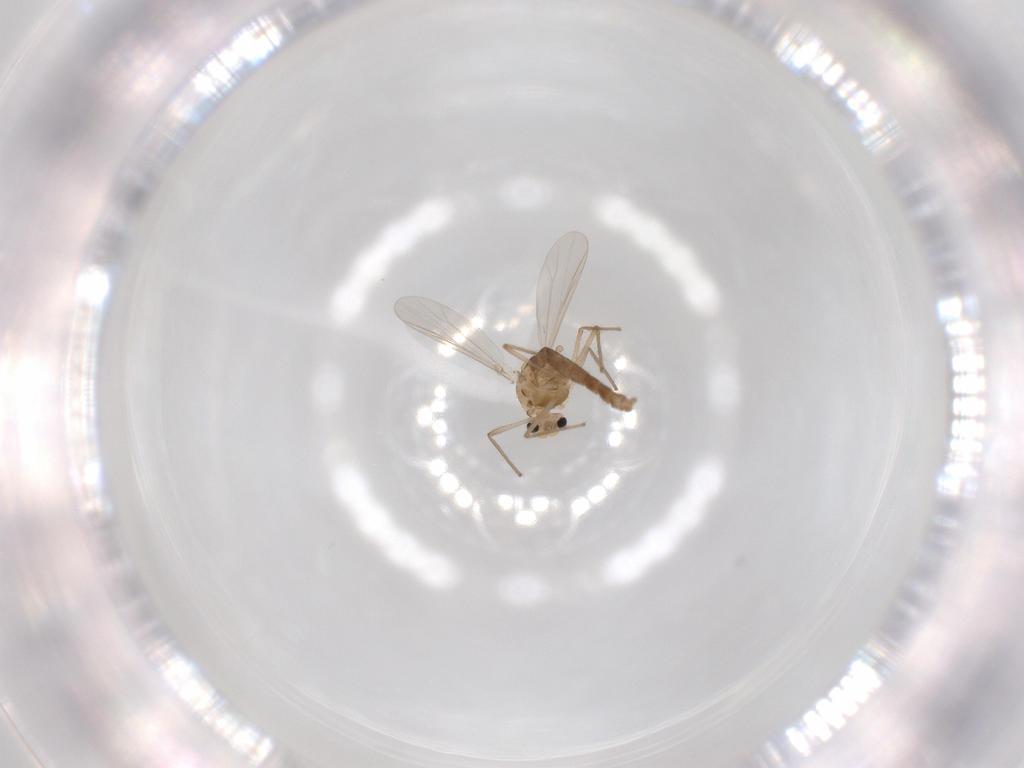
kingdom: Animalia
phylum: Arthropoda
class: Insecta
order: Diptera
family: Chironomidae
